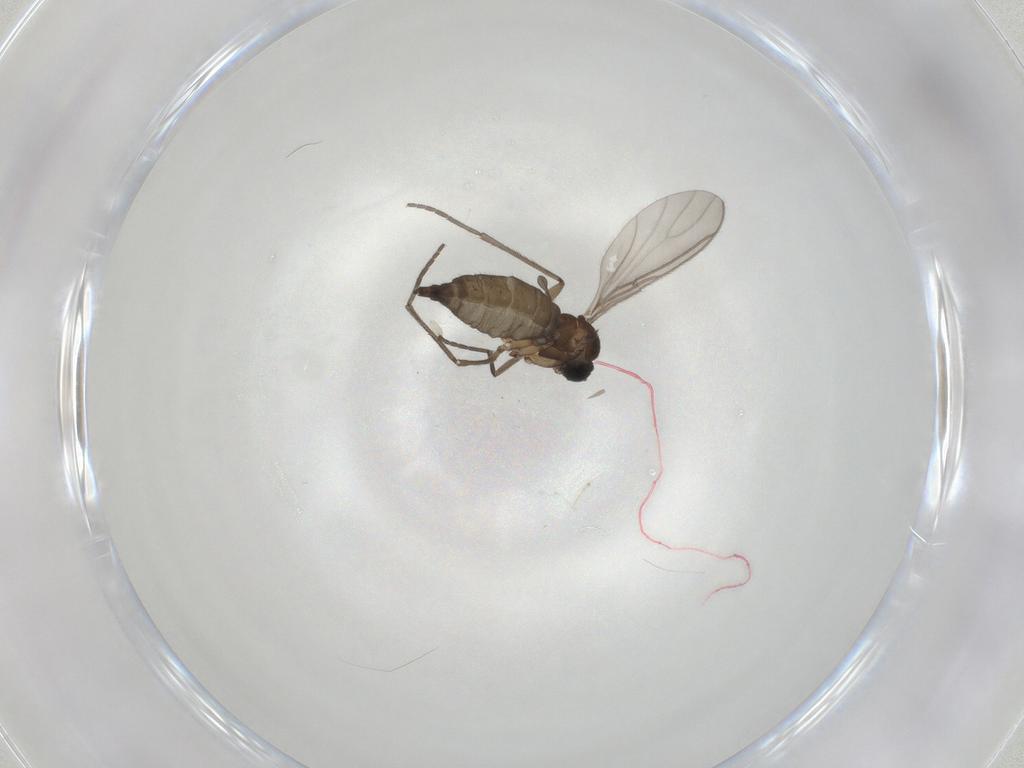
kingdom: Animalia
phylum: Arthropoda
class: Insecta
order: Diptera
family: Sciaridae
